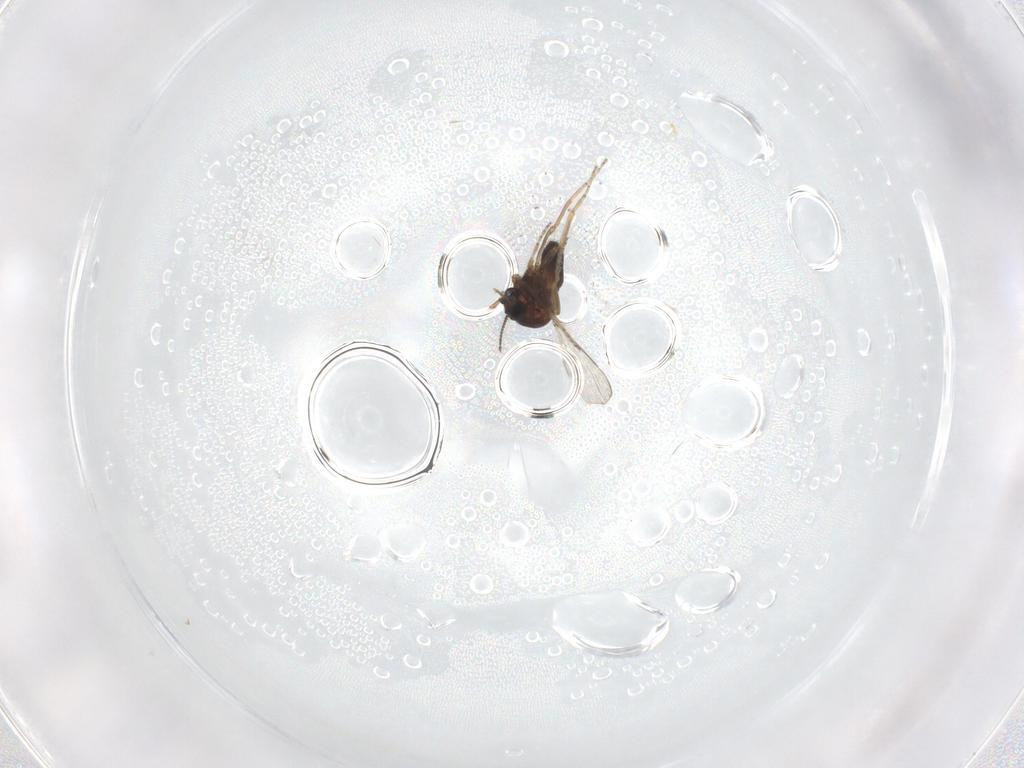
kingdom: Animalia
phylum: Arthropoda
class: Insecta
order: Diptera
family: Ceratopogonidae
